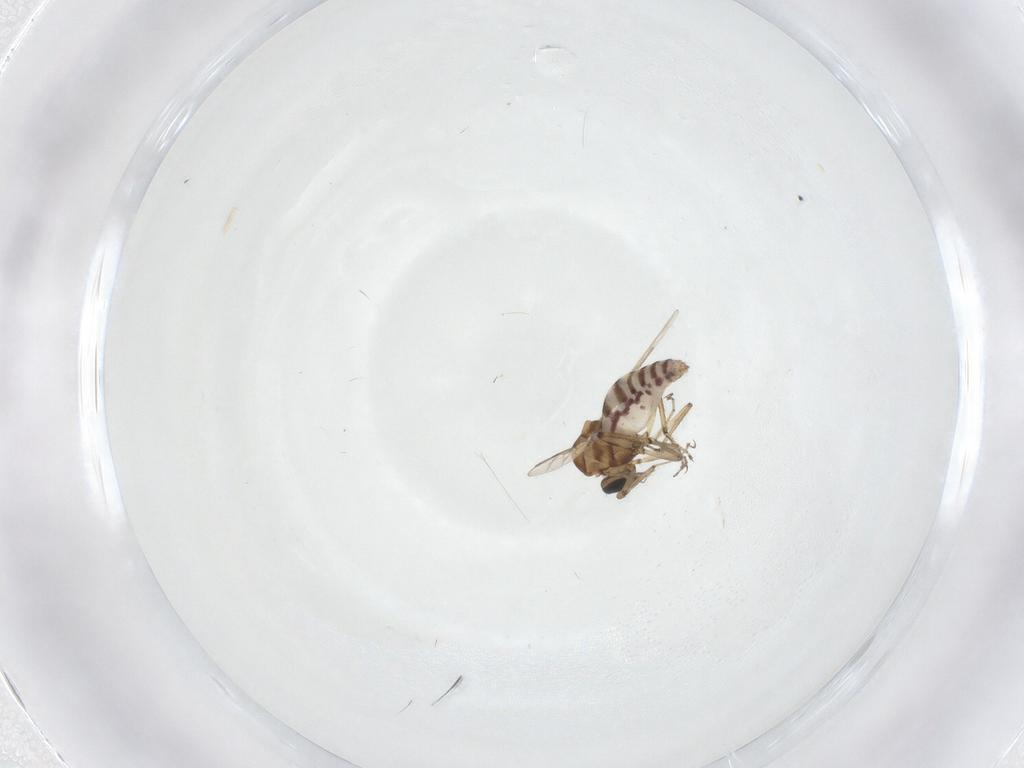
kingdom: Animalia
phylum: Arthropoda
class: Insecta
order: Diptera
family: Ceratopogonidae
